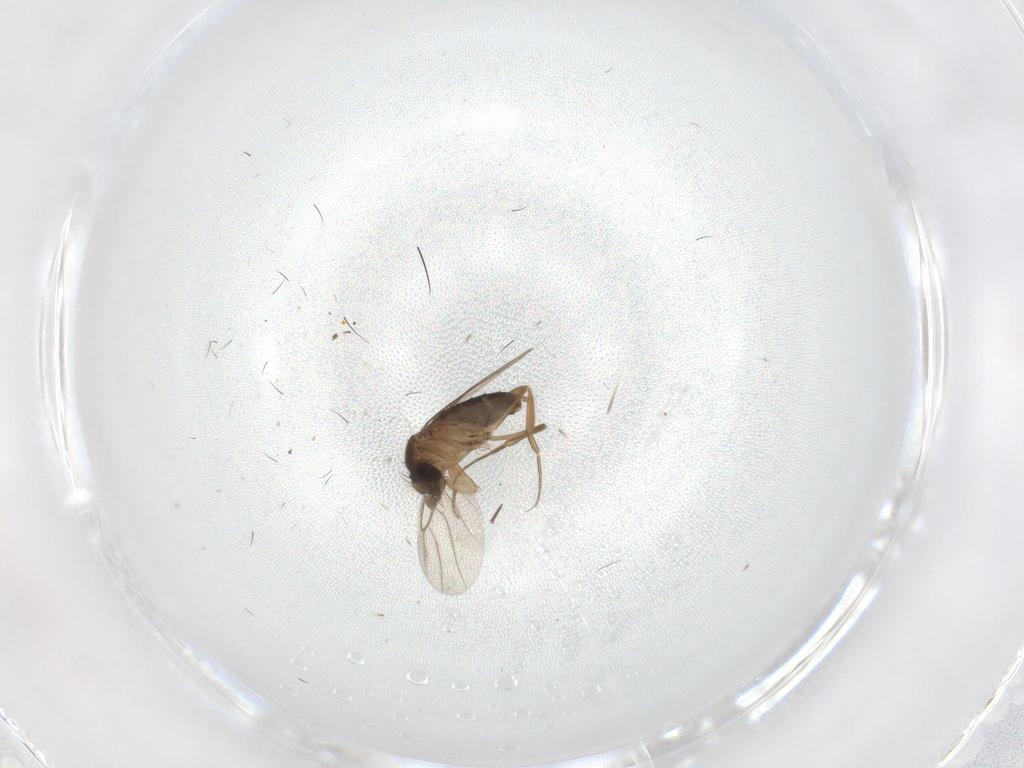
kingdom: Animalia
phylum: Arthropoda
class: Insecta
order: Diptera
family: Phoridae
